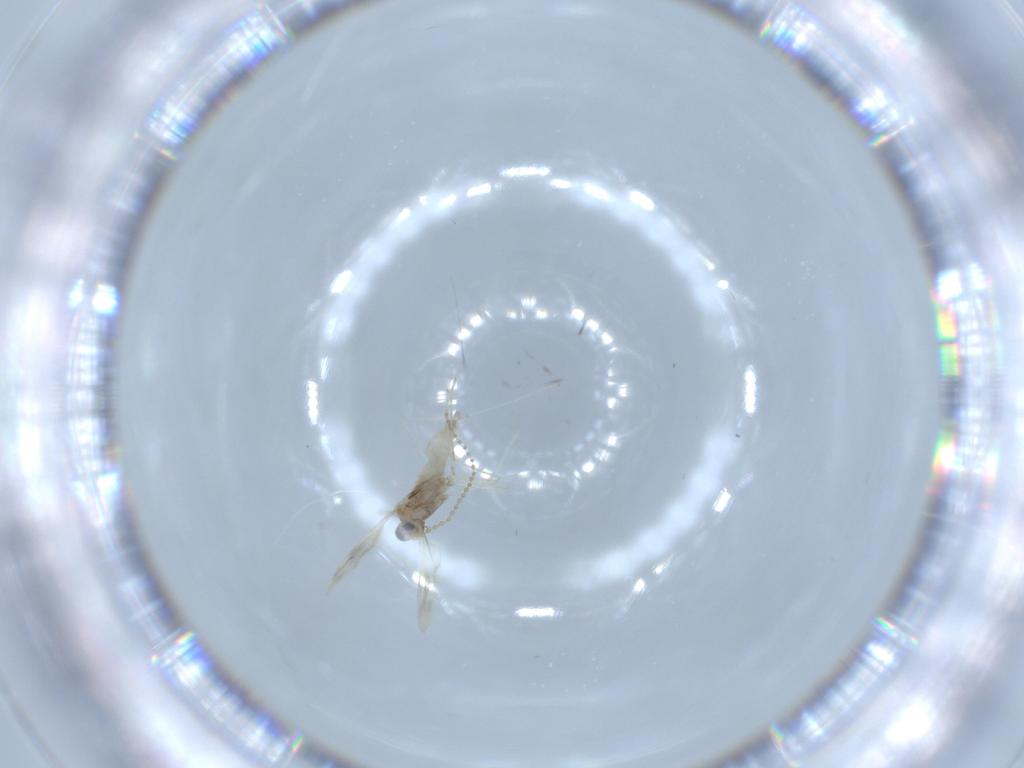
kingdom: Animalia
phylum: Arthropoda
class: Insecta
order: Diptera
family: Cecidomyiidae
